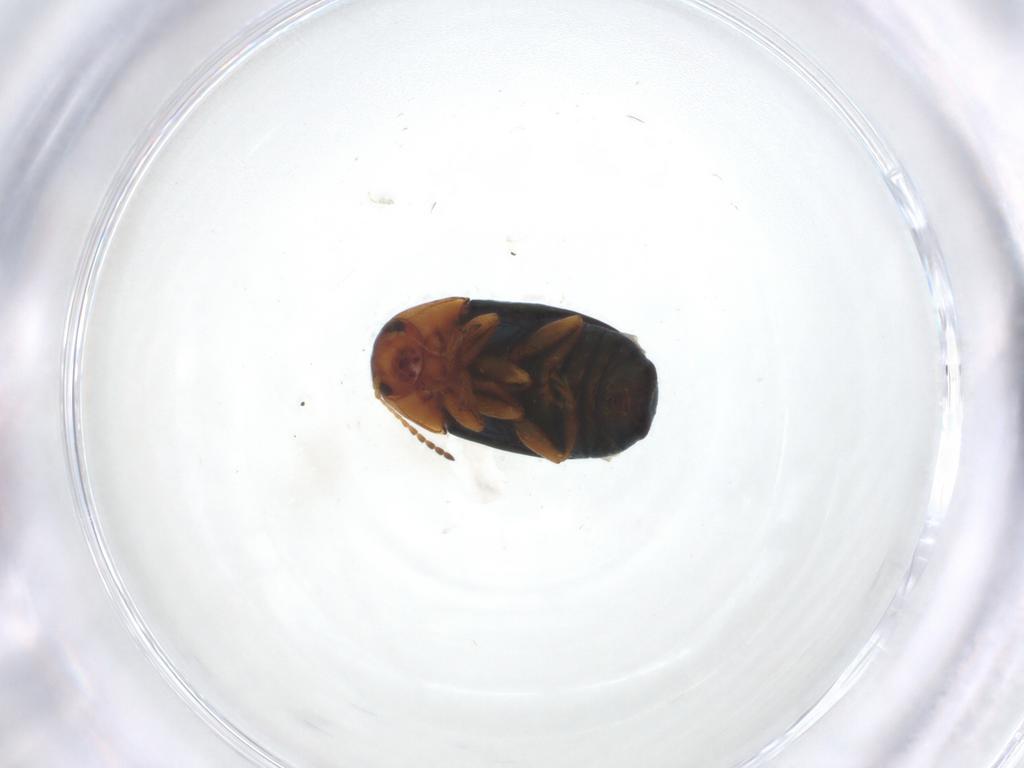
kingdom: Animalia
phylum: Arthropoda
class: Insecta
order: Coleoptera
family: Chrysomelidae
